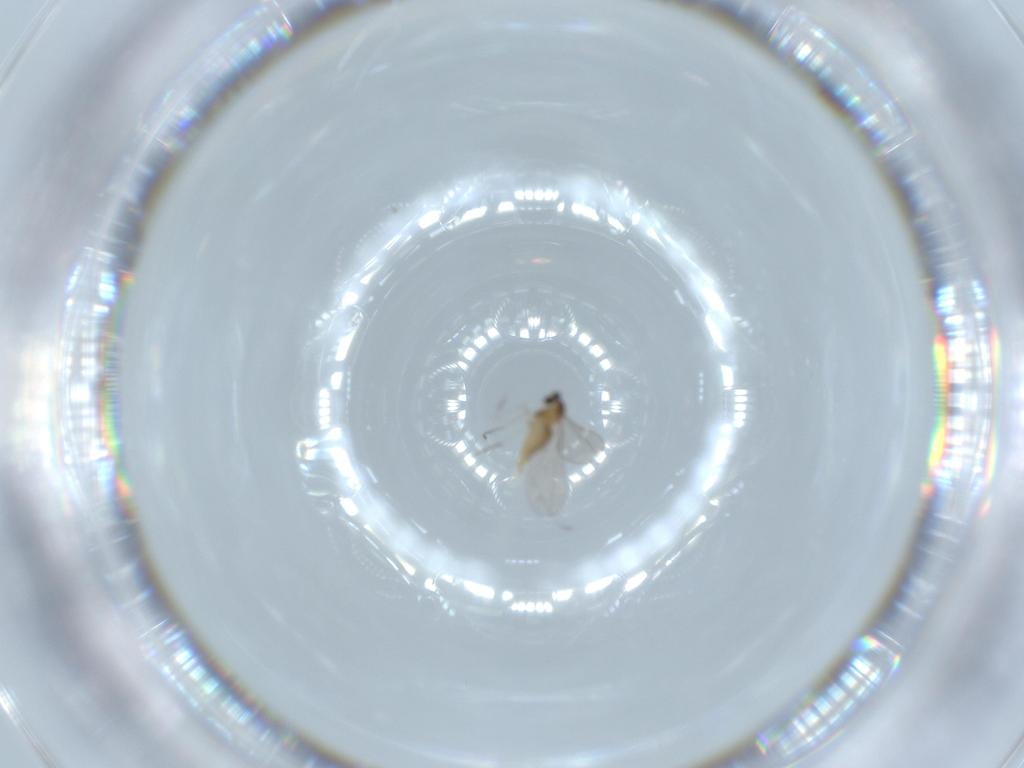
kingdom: Animalia
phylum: Arthropoda
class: Insecta
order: Diptera
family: Cecidomyiidae
